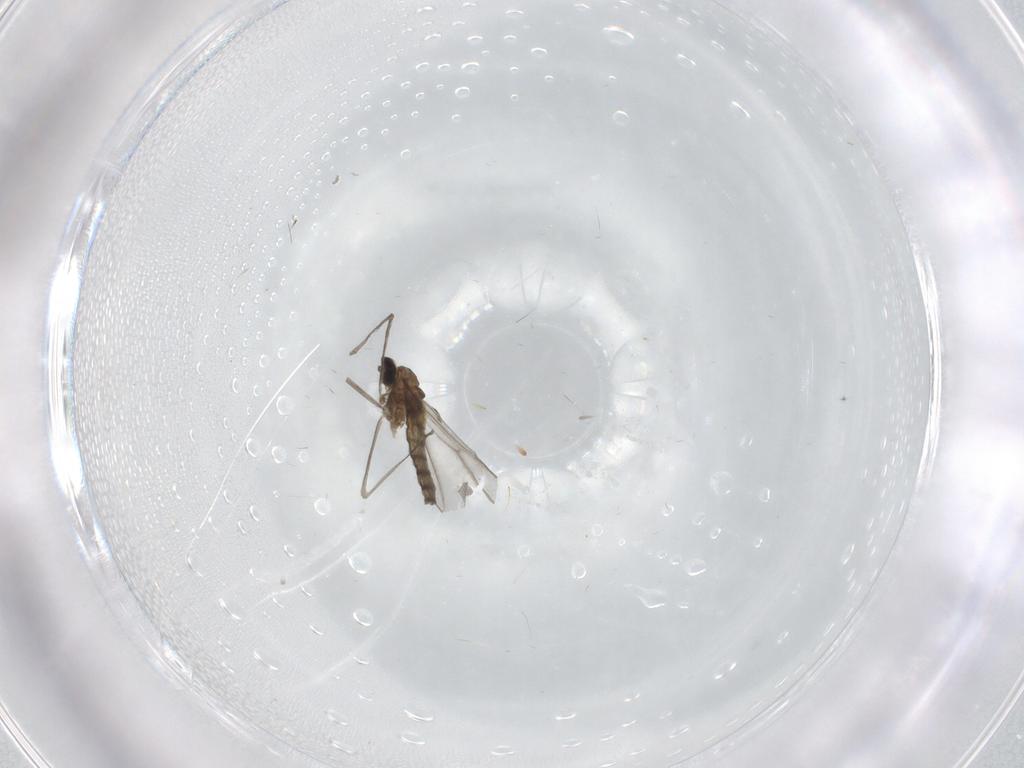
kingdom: Animalia
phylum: Arthropoda
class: Insecta
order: Diptera
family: Cecidomyiidae
